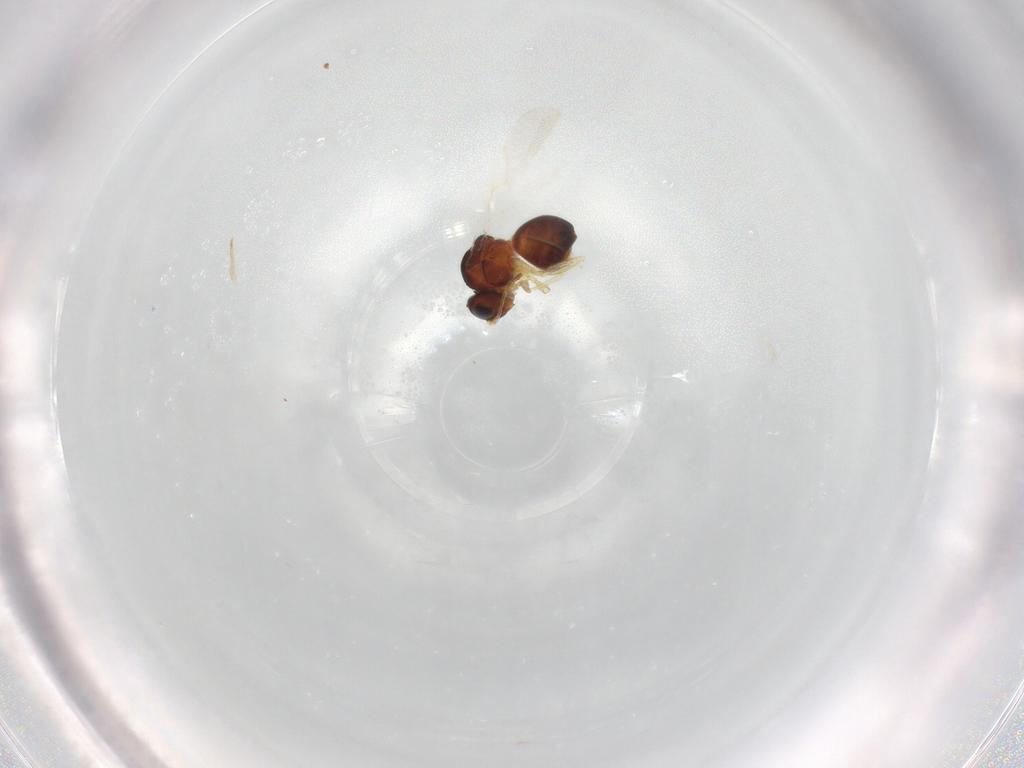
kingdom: Animalia
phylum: Arthropoda
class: Insecta
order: Hymenoptera
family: Figitidae
